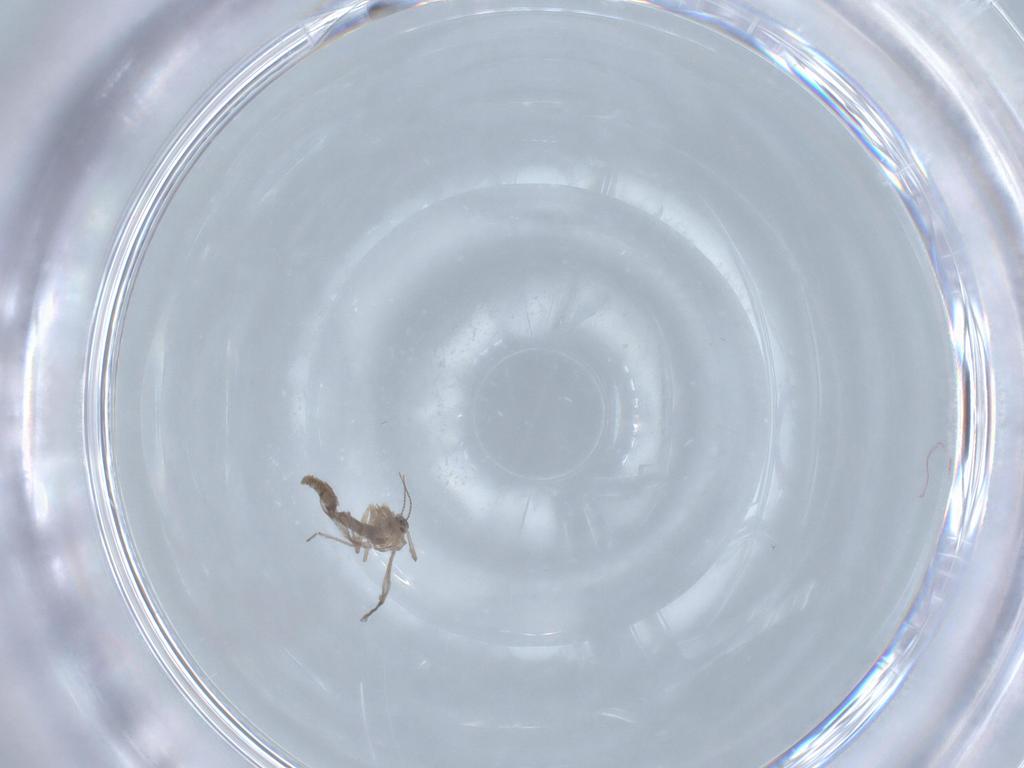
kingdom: Animalia
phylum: Arthropoda
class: Insecta
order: Diptera
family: Chironomidae
